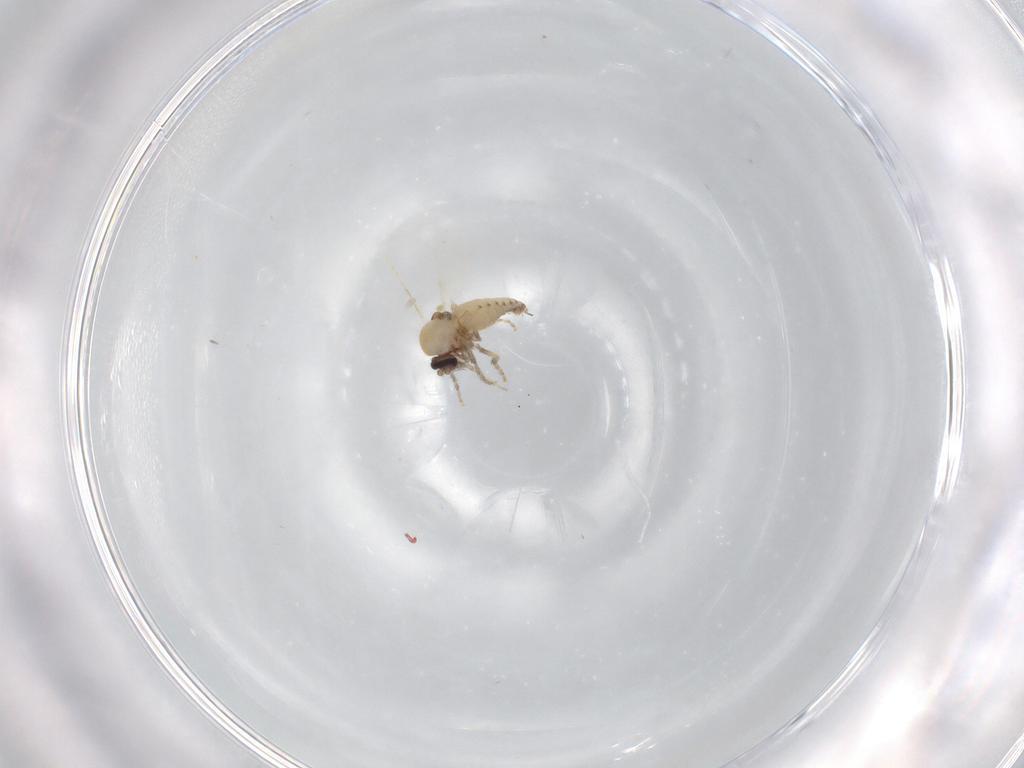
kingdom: Animalia
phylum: Arthropoda
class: Insecta
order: Diptera
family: Ceratopogonidae
